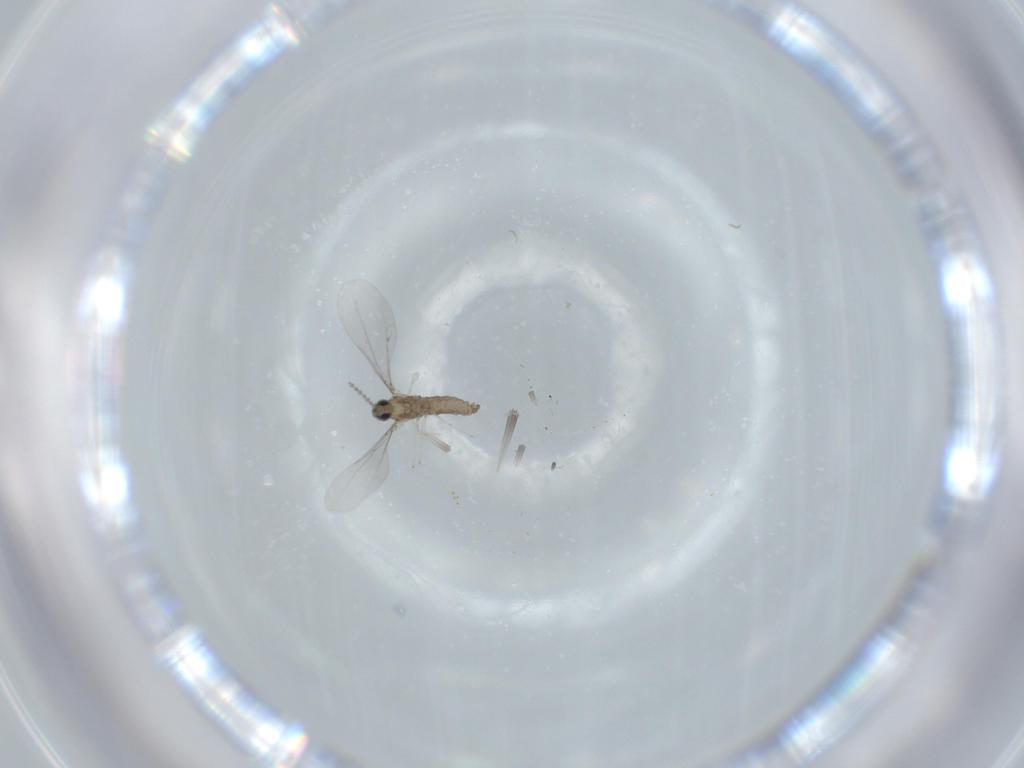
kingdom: Animalia
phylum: Arthropoda
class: Insecta
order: Diptera
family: Cecidomyiidae
